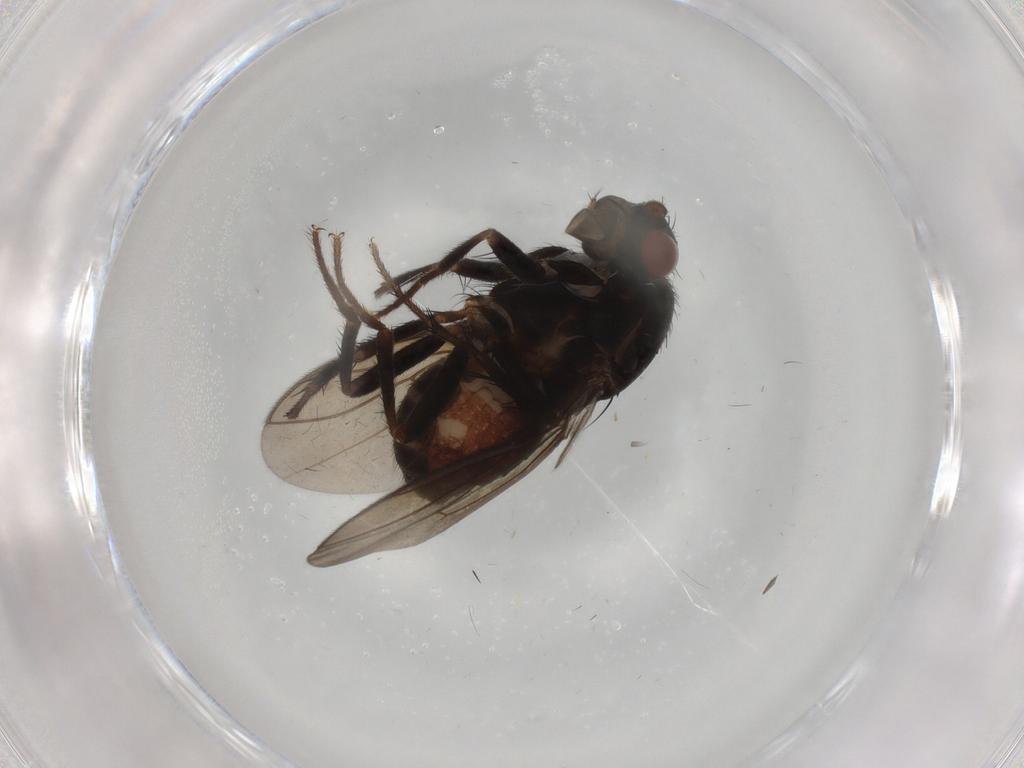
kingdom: Animalia
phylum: Arthropoda
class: Insecta
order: Diptera
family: Sphaeroceridae
